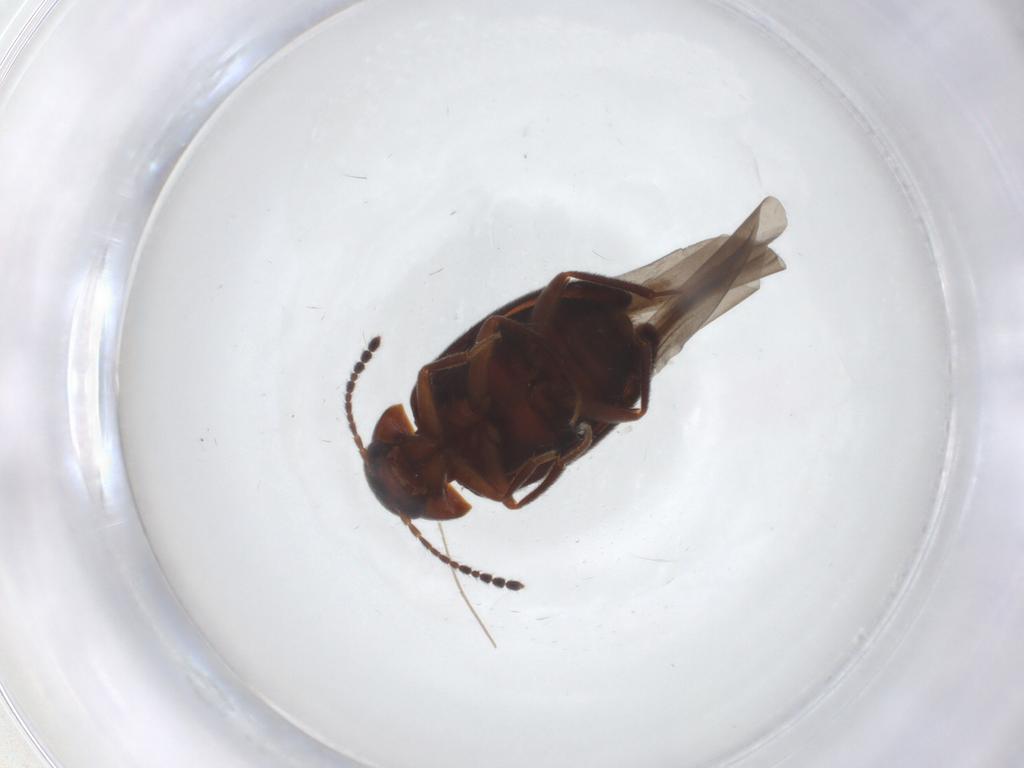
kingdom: Animalia
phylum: Arthropoda
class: Insecta
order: Coleoptera
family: Leiodidae
